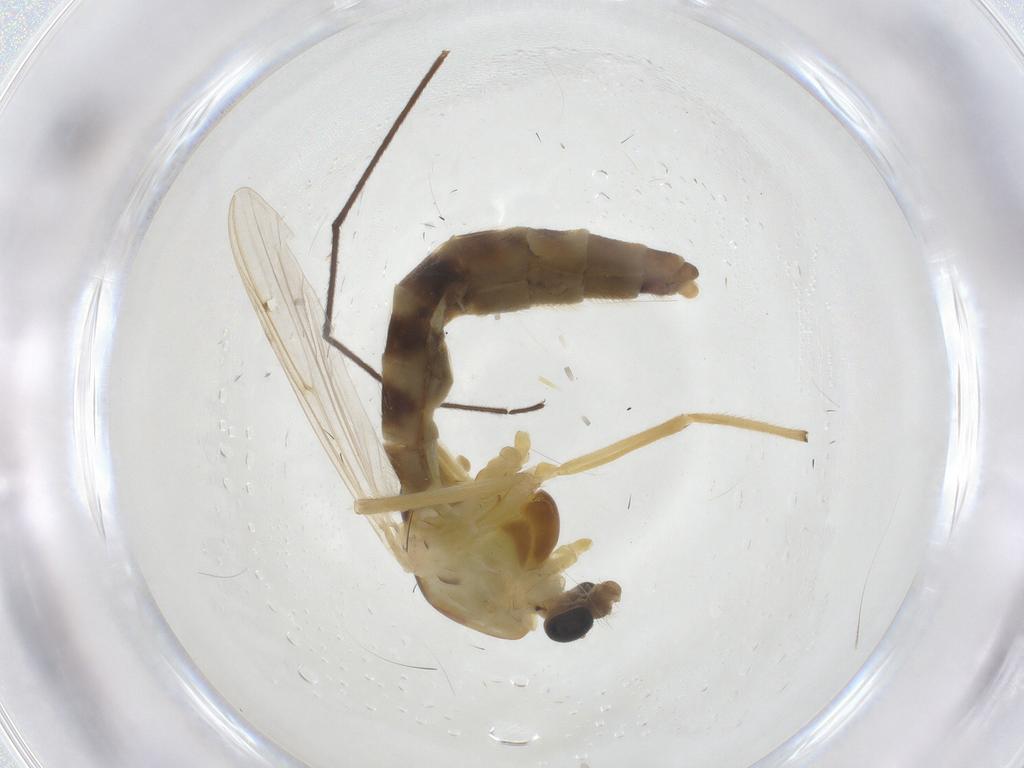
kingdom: Animalia
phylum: Arthropoda
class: Insecta
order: Diptera
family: Chironomidae
